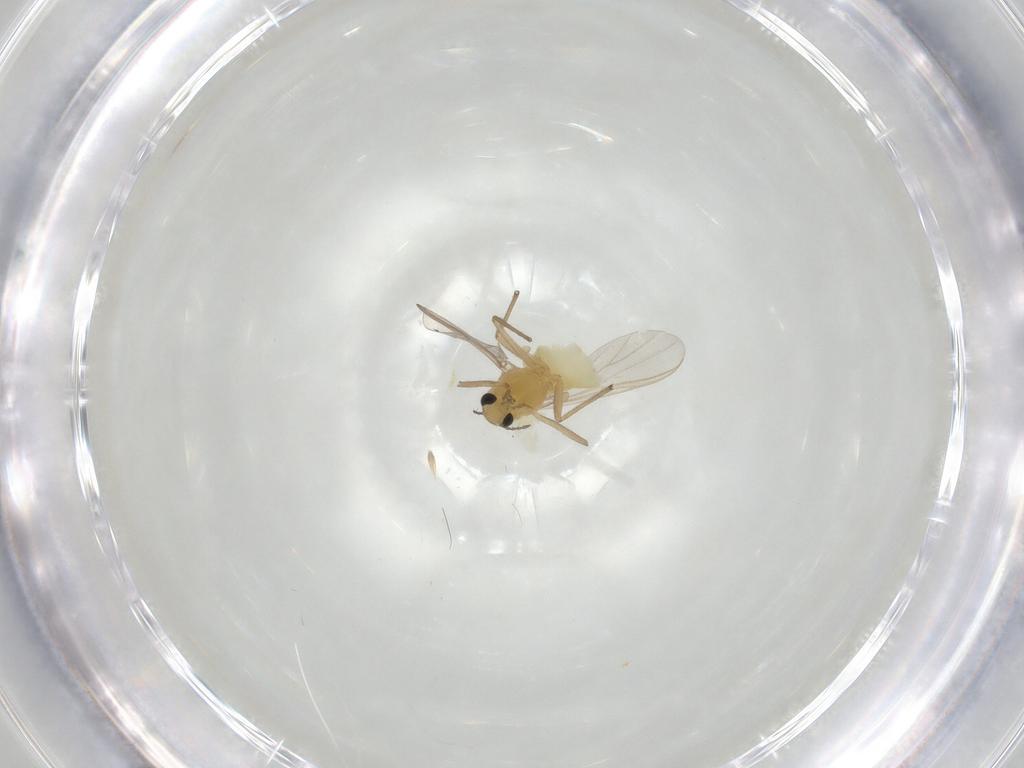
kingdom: Animalia
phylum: Arthropoda
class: Insecta
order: Diptera
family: Chironomidae
